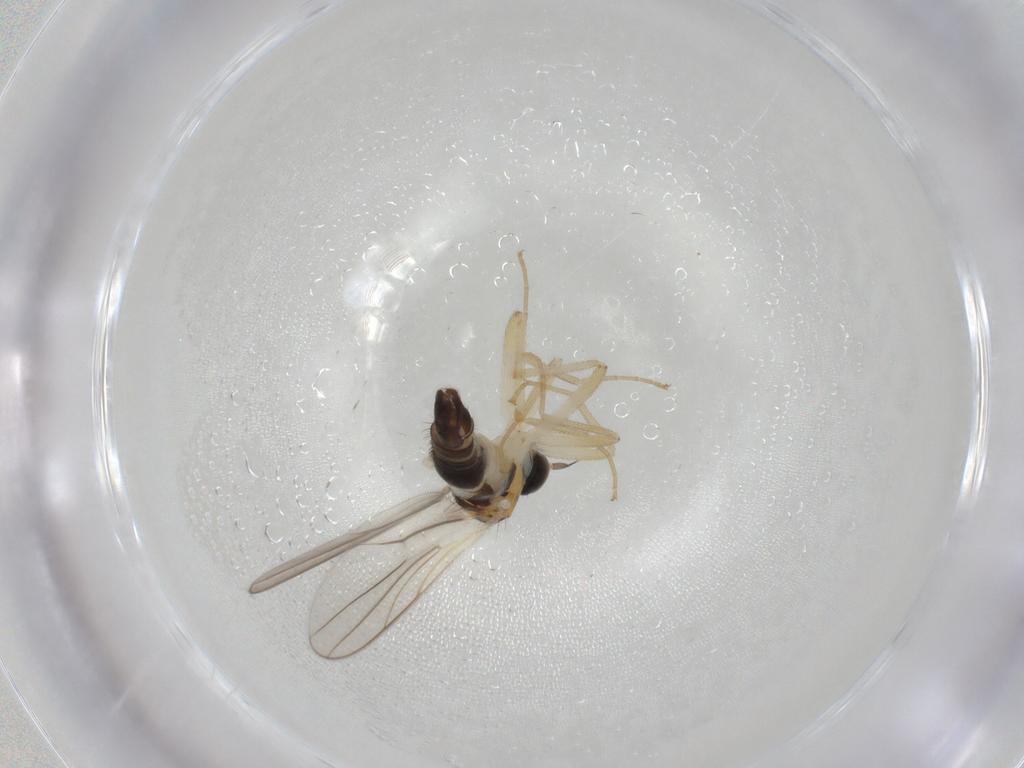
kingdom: Animalia
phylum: Arthropoda
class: Insecta
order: Diptera
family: Hybotidae
